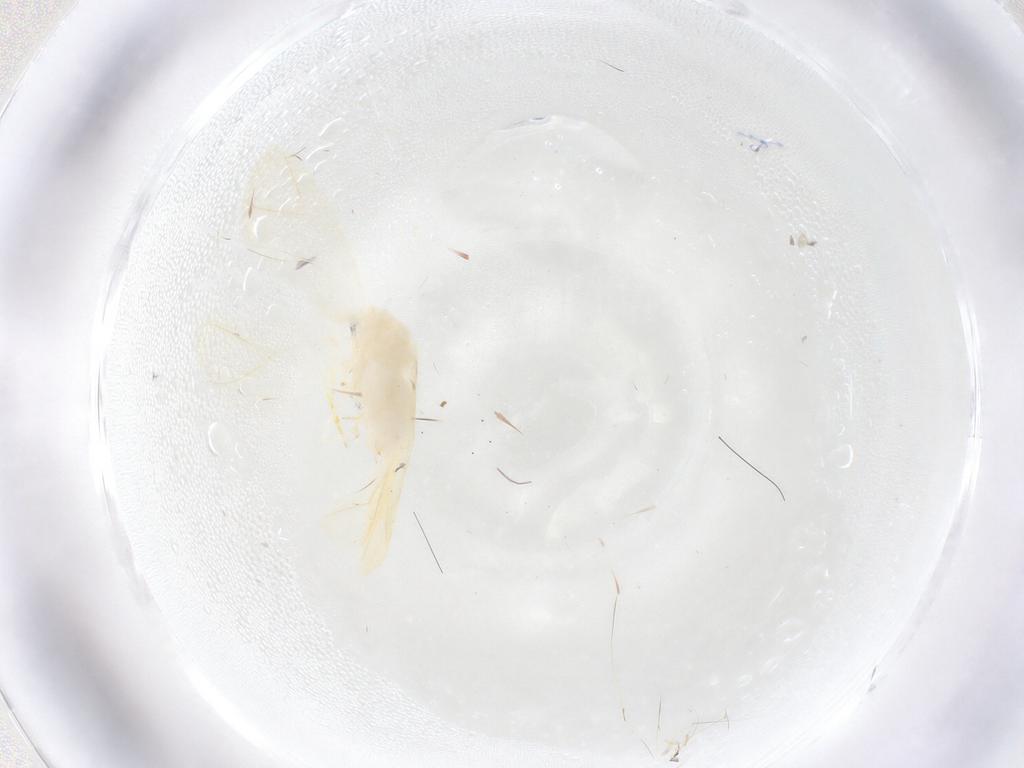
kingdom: Animalia
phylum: Arthropoda
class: Insecta
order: Hemiptera
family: Aleyrodidae
